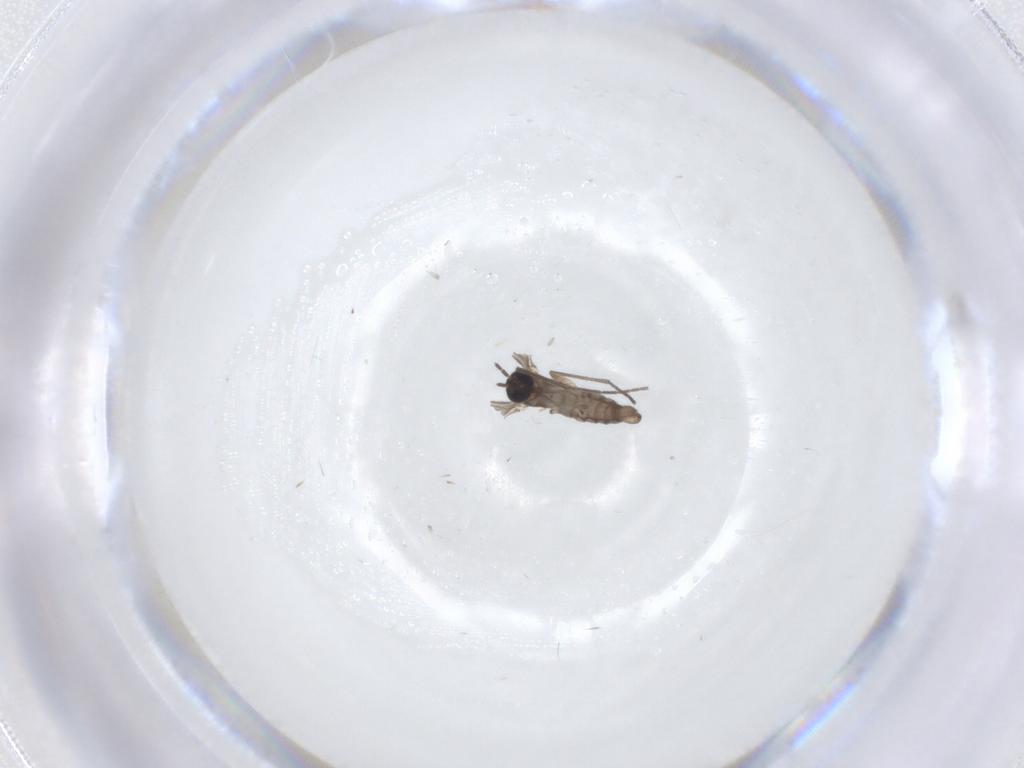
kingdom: Animalia
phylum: Arthropoda
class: Insecta
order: Diptera
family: Sciaridae
